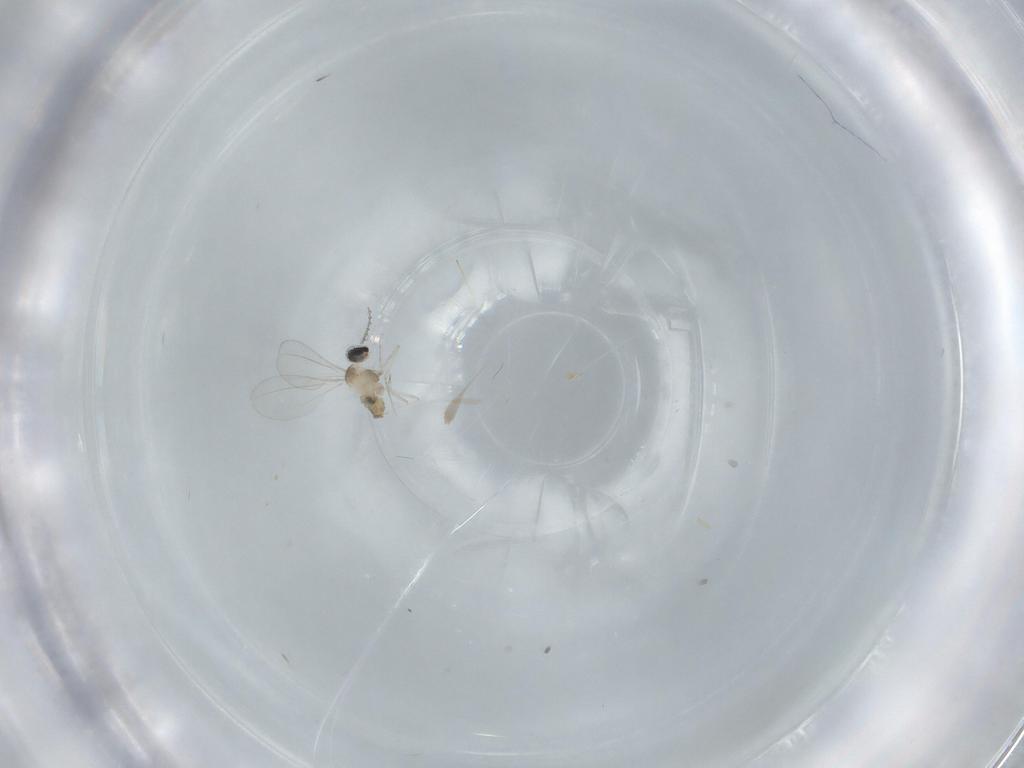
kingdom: Animalia
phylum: Arthropoda
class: Insecta
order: Diptera
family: Cecidomyiidae
